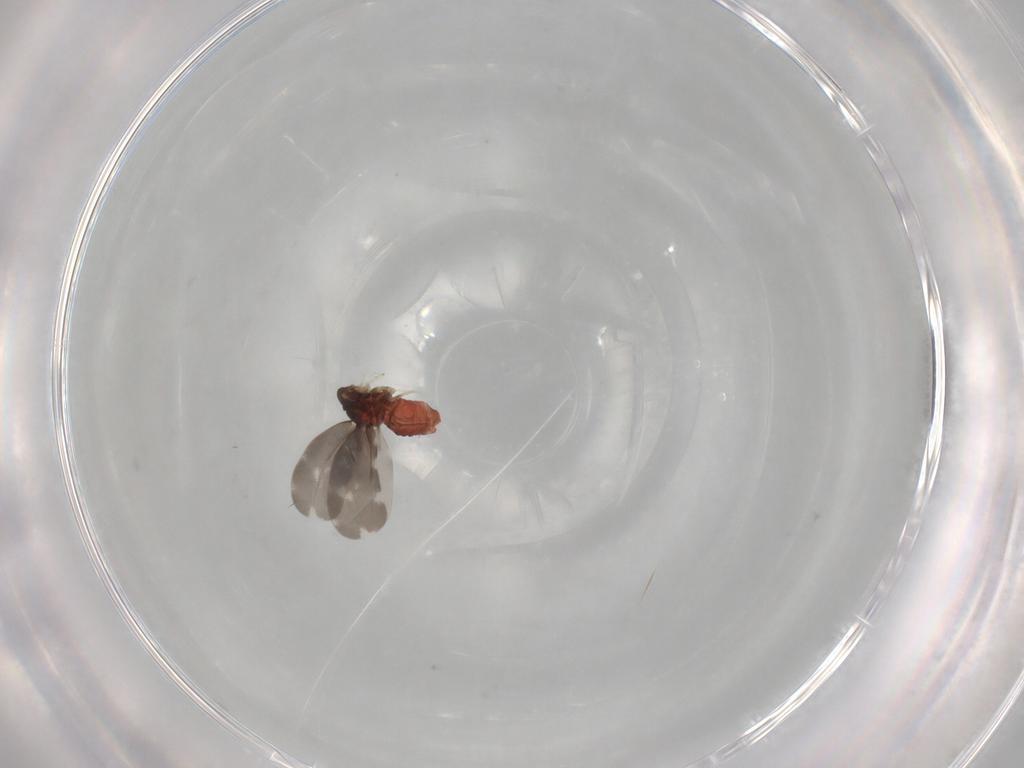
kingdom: Animalia
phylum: Arthropoda
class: Insecta
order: Hemiptera
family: Aleyrodidae
